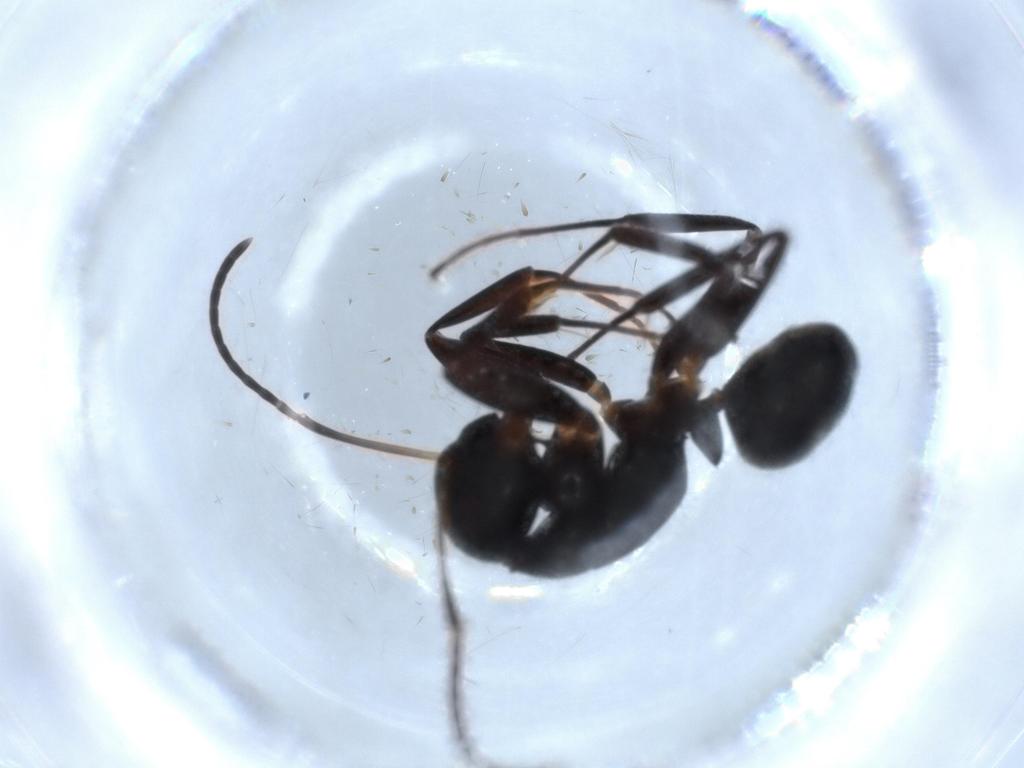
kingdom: Animalia
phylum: Arthropoda
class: Insecta
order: Hymenoptera
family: Formicidae
